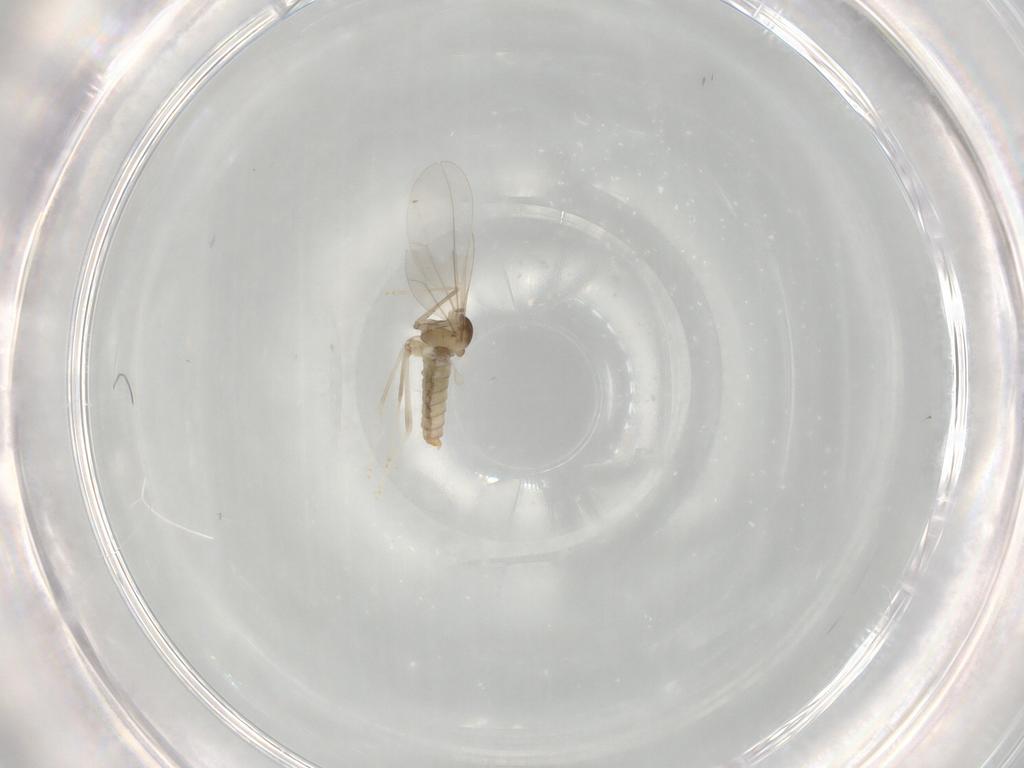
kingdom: Animalia
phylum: Arthropoda
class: Insecta
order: Diptera
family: Cecidomyiidae
